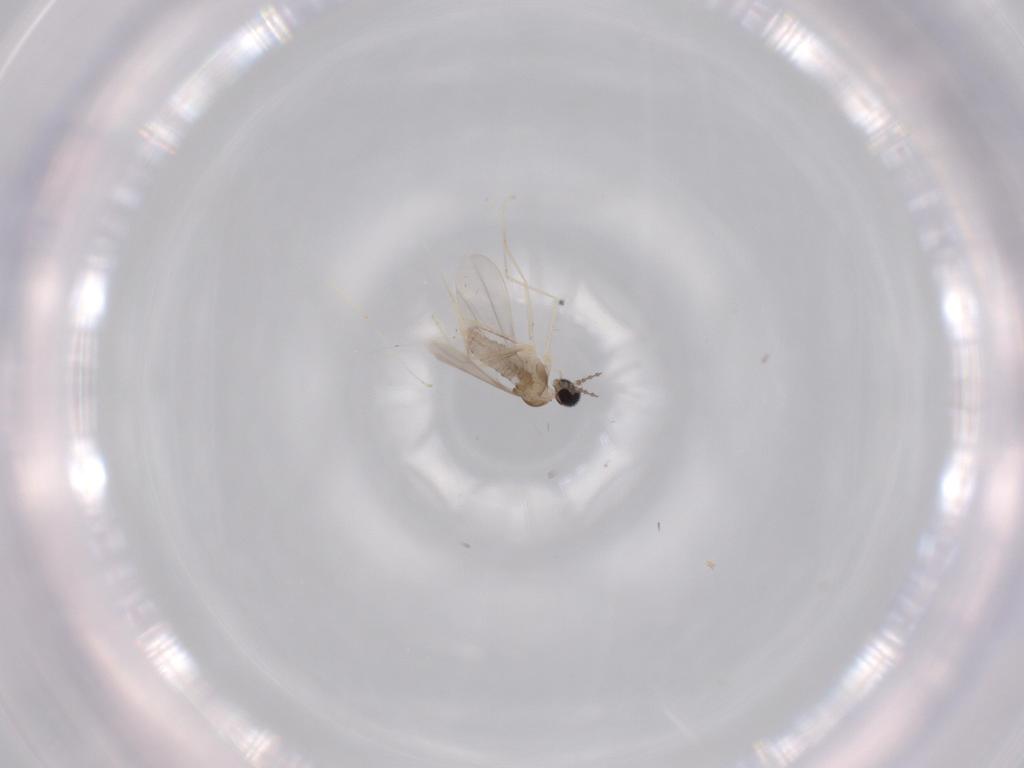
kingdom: Animalia
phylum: Arthropoda
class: Insecta
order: Diptera
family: Cecidomyiidae
